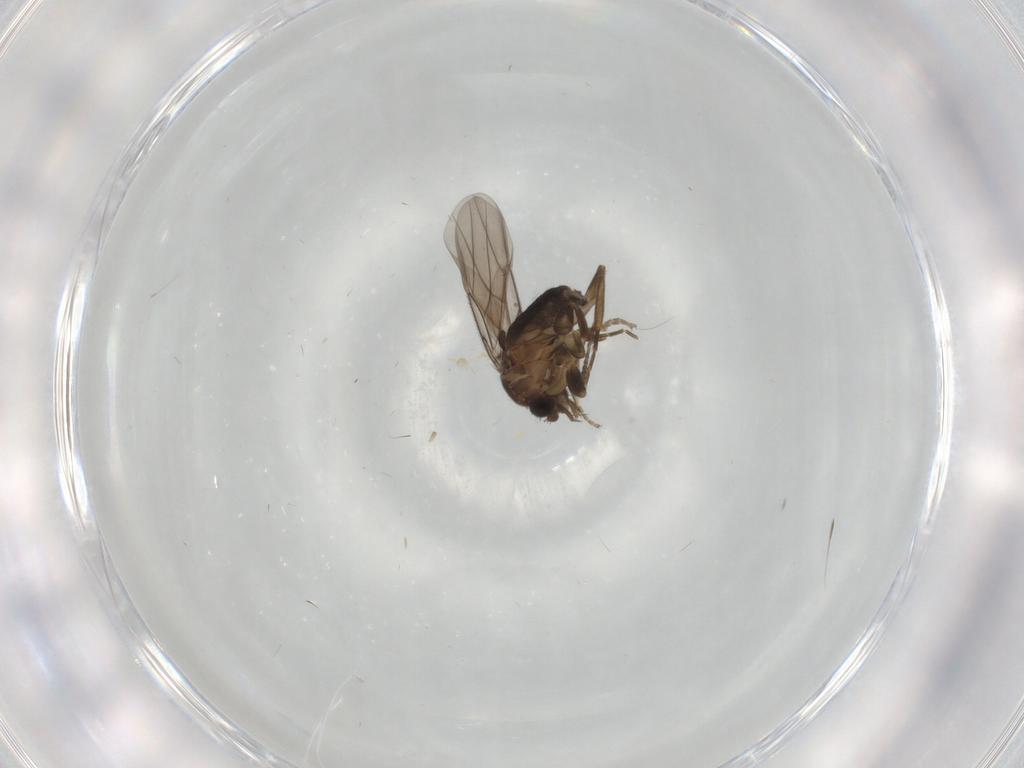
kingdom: Animalia
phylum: Arthropoda
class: Insecta
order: Diptera
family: Psychodidae
